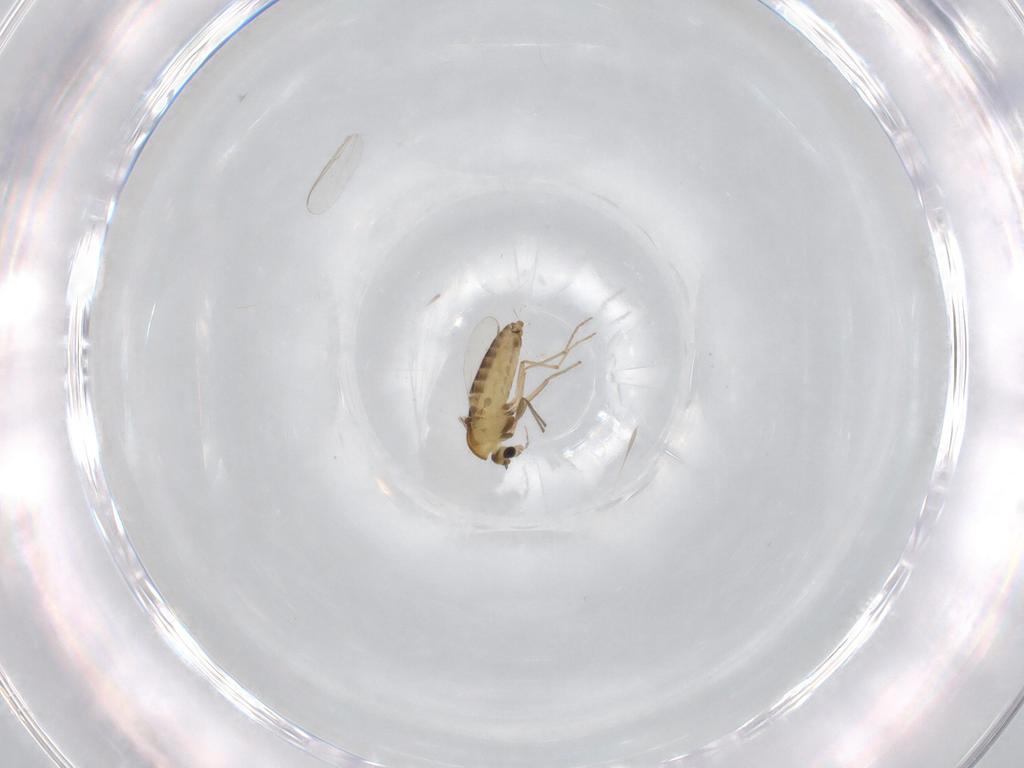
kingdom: Animalia
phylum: Arthropoda
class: Insecta
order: Diptera
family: Chironomidae
